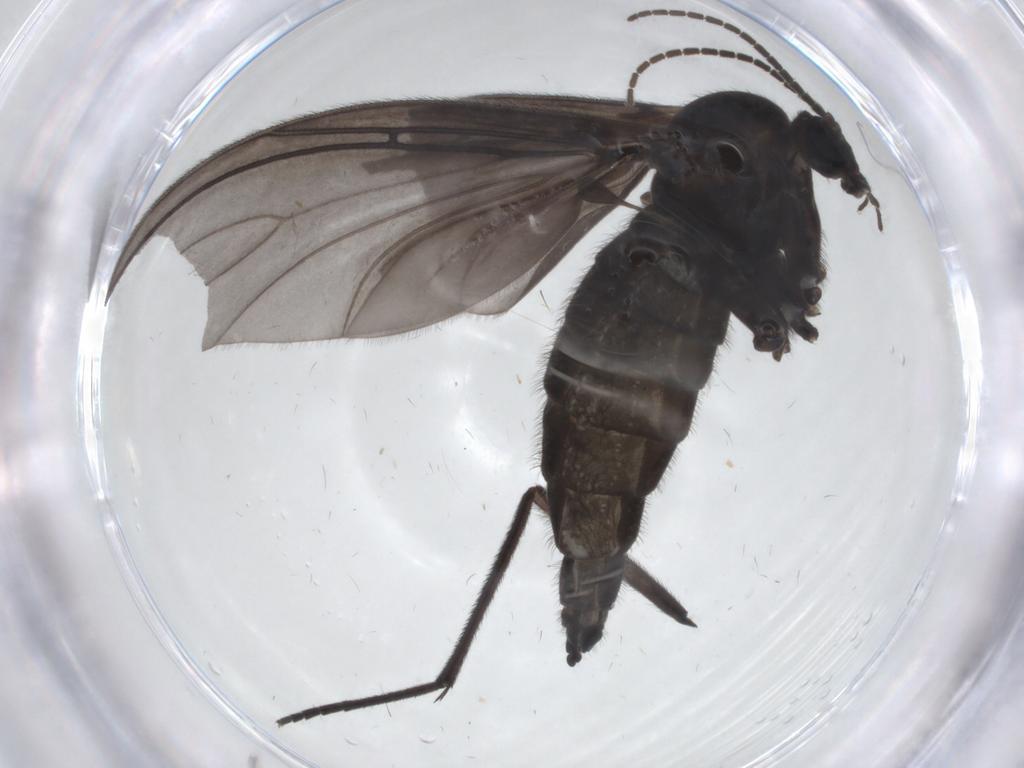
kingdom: Animalia
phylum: Arthropoda
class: Insecta
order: Diptera
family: Sciaridae
